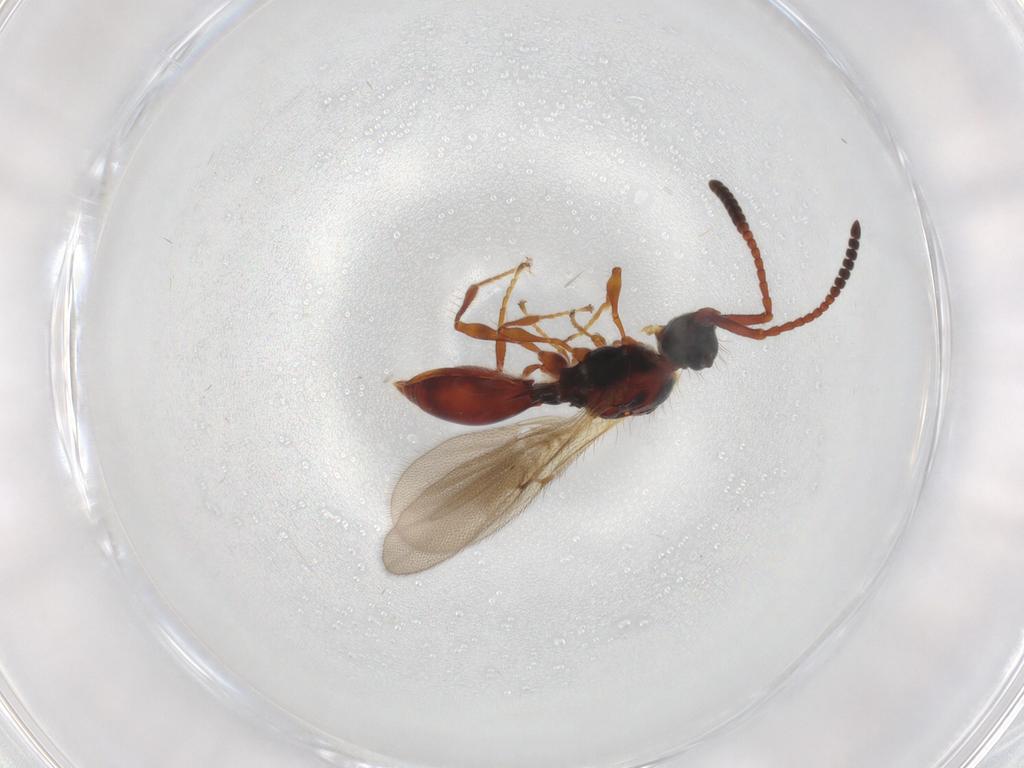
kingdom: Animalia
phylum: Arthropoda
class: Insecta
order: Hymenoptera
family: Diapriidae
